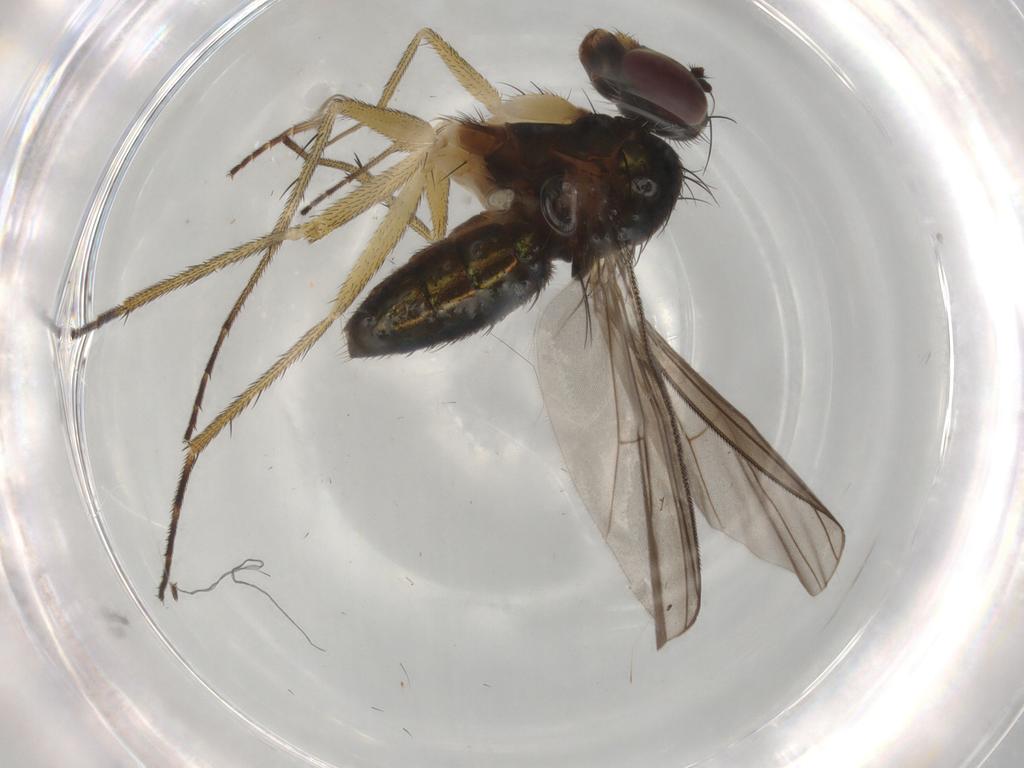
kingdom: Animalia
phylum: Arthropoda
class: Insecta
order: Diptera
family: Dolichopodidae
